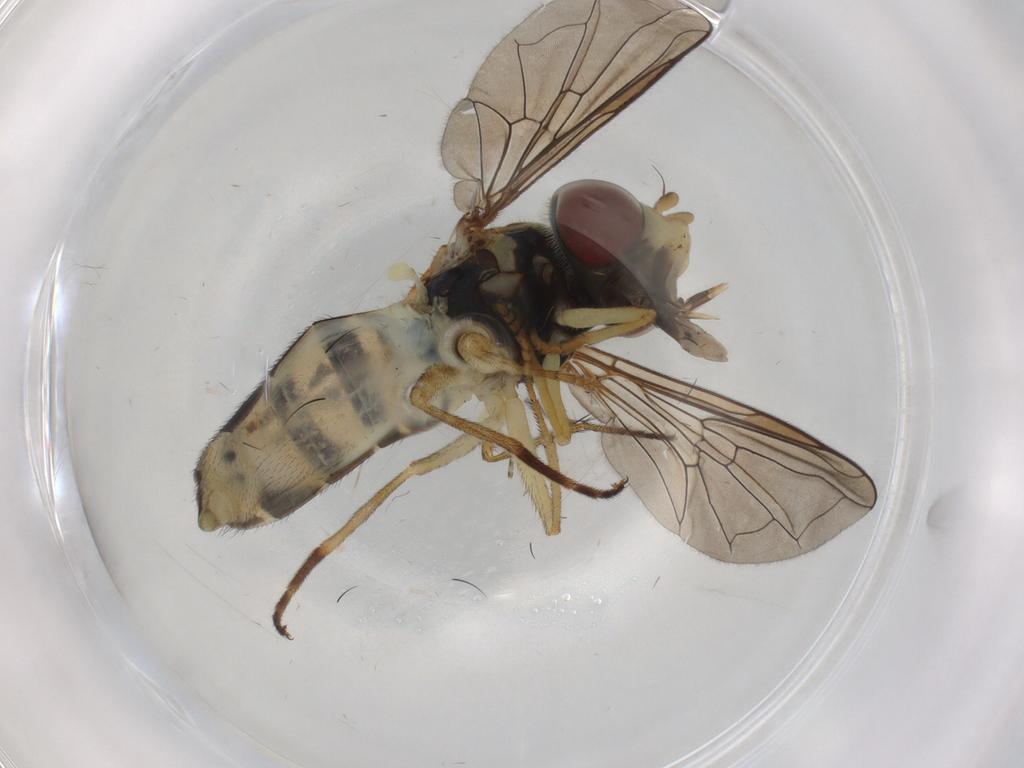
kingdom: Animalia
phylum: Arthropoda
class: Insecta
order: Diptera
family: Syrphidae
